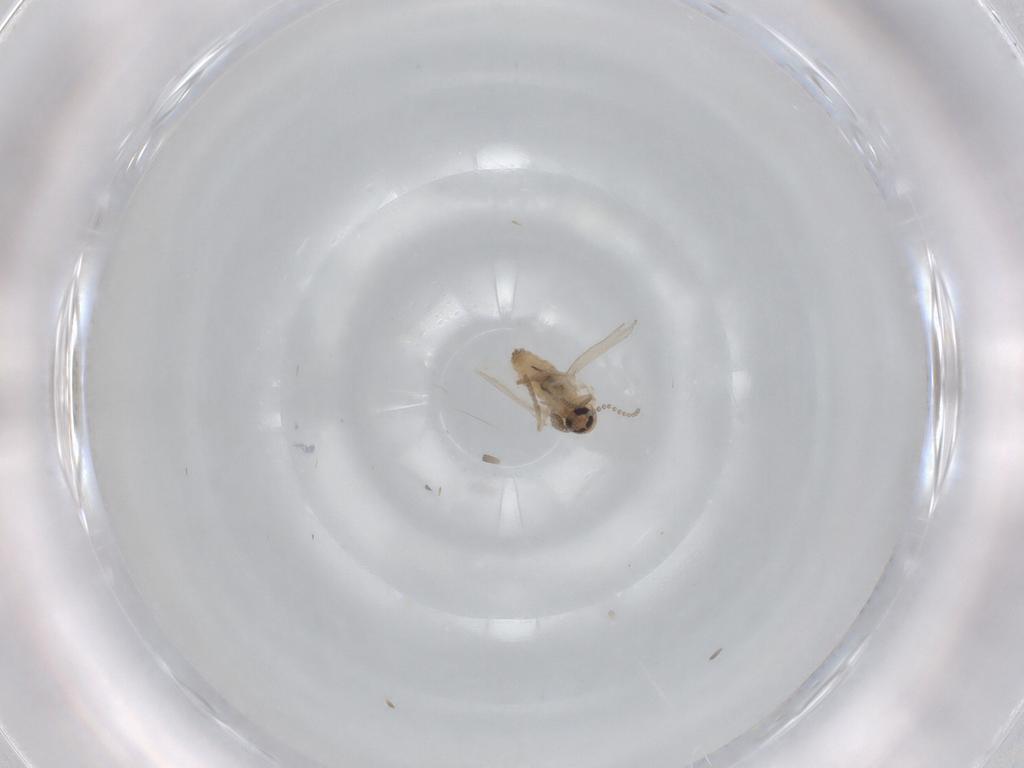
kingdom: Animalia
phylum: Arthropoda
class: Insecta
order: Diptera
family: Psychodidae
